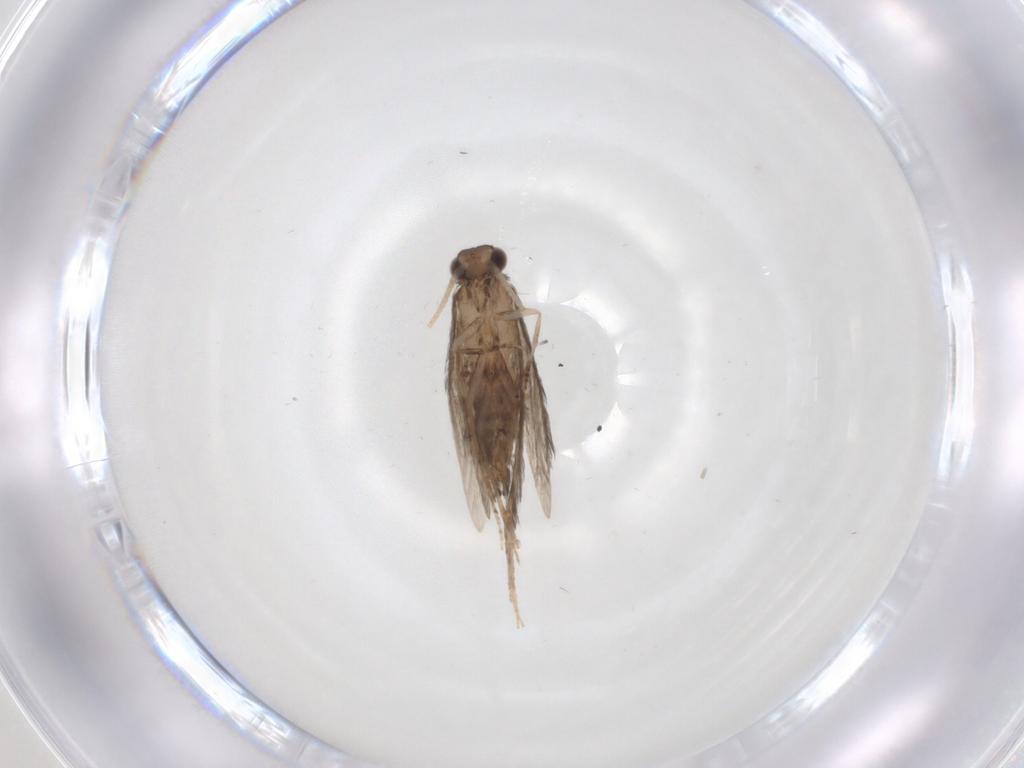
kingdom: Animalia
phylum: Arthropoda
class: Insecta
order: Trichoptera
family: Hydroptilidae
